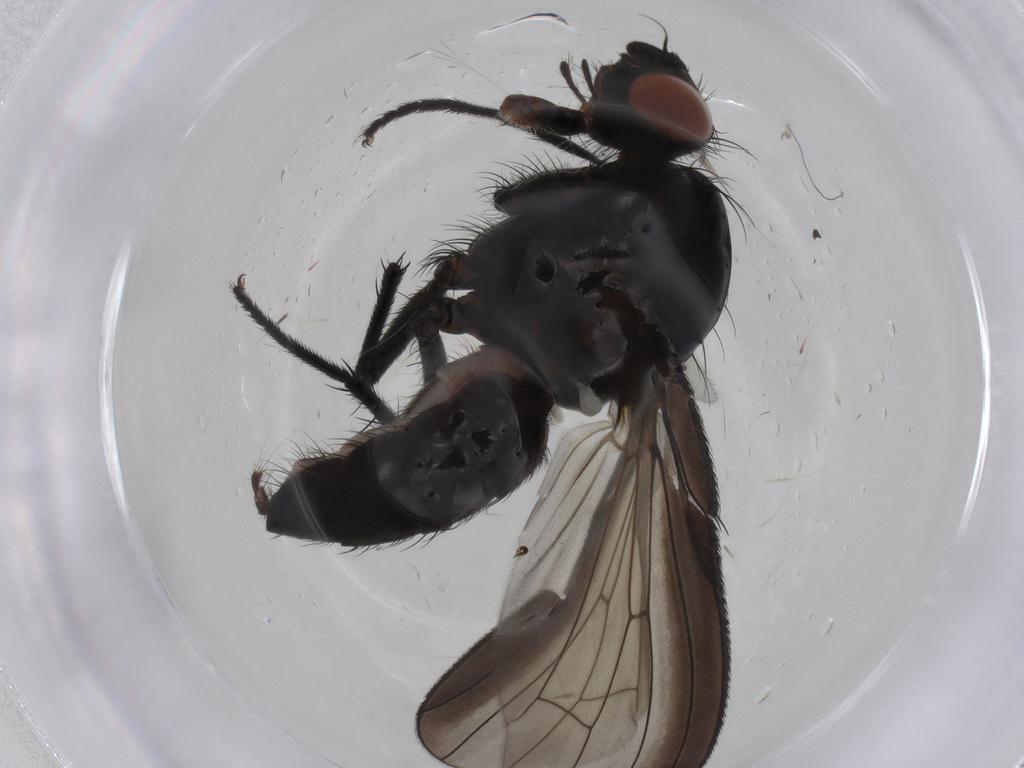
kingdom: Animalia
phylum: Arthropoda
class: Insecta
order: Diptera
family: Anthomyiidae
